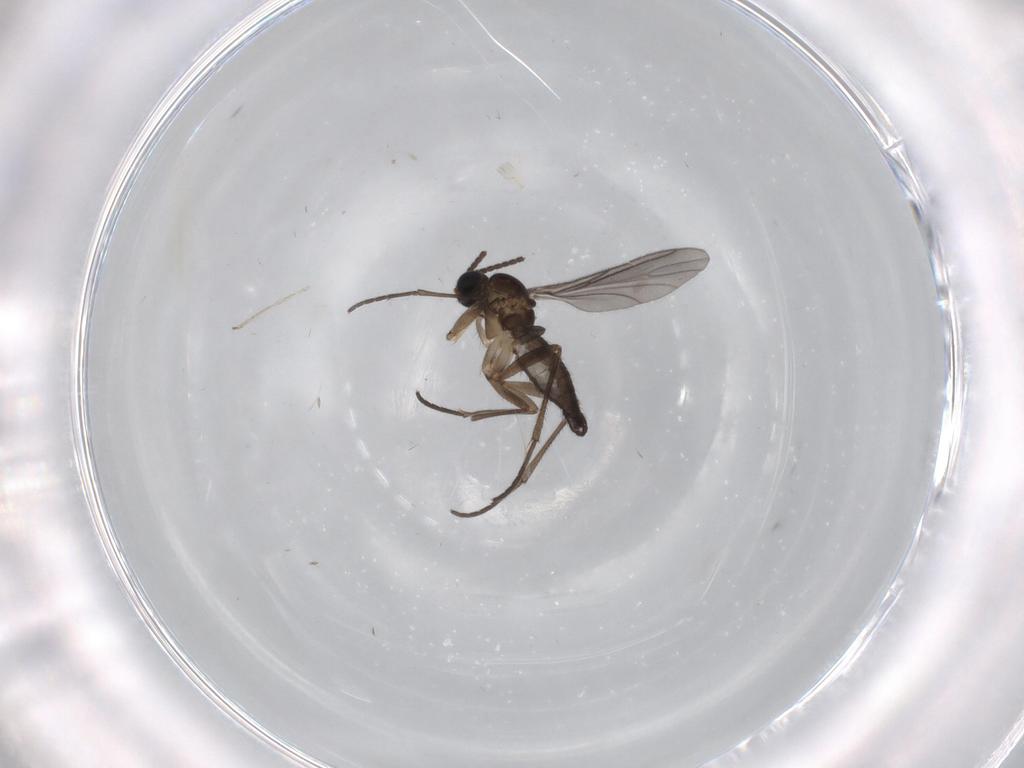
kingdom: Animalia
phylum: Arthropoda
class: Insecta
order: Diptera
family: Sciaridae
